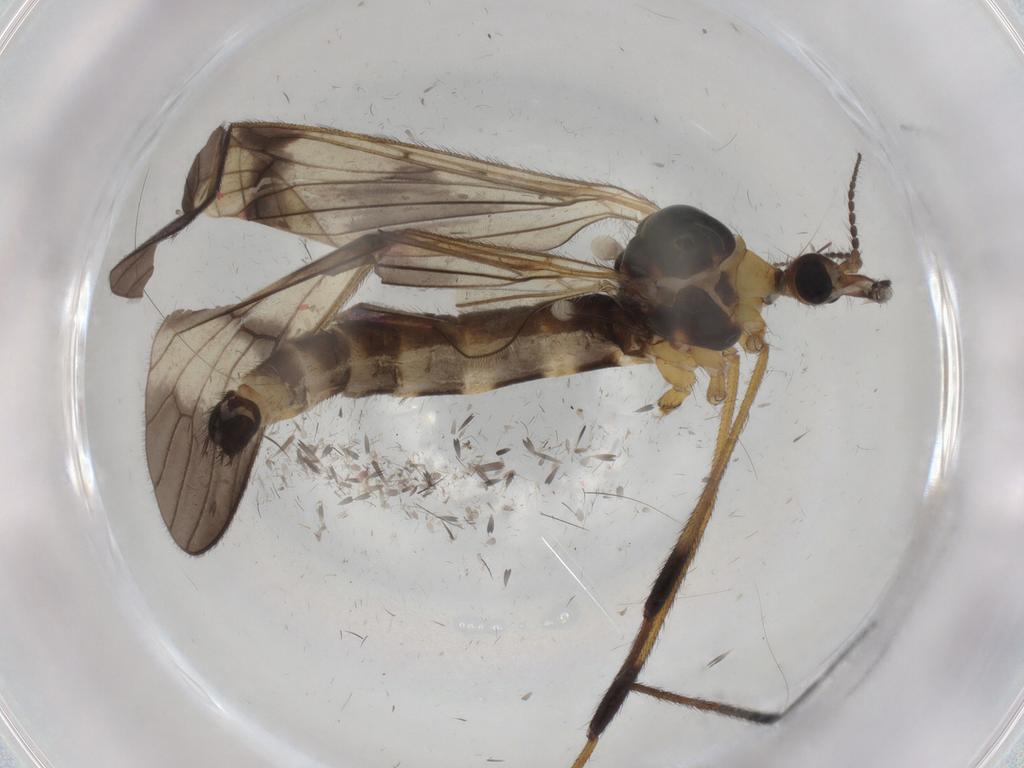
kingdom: Animalia
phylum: Arthropoda
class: Insecta
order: Diptera
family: Limoniidae
